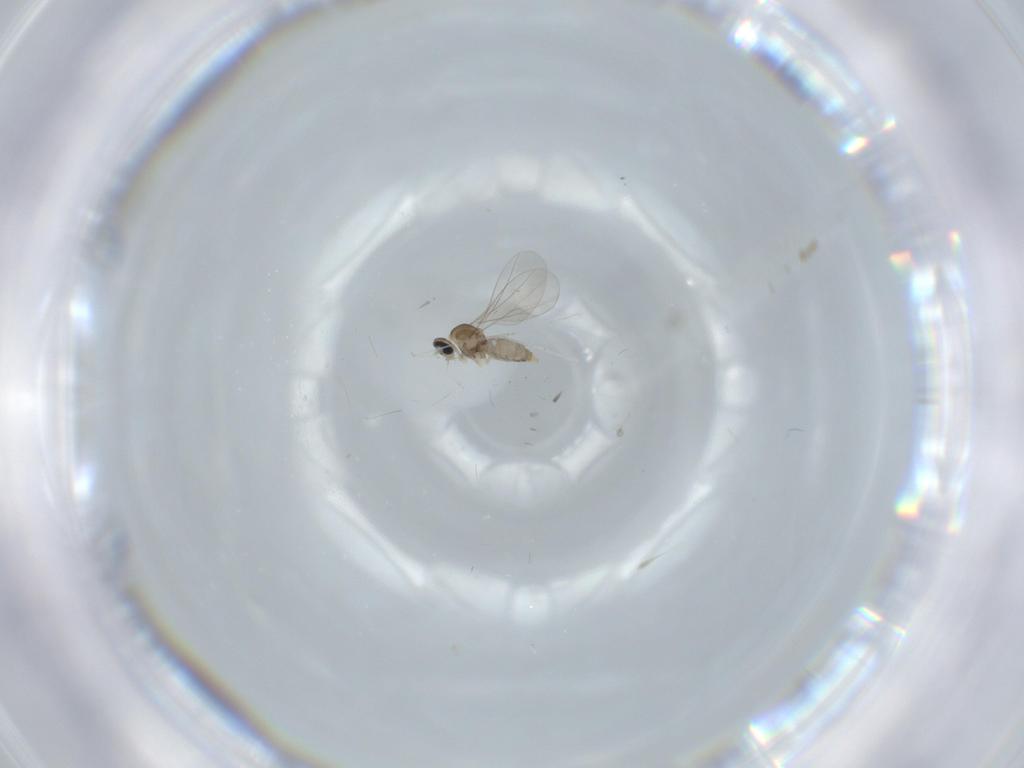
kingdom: Animalia
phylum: Arthropoda
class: Insecta
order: Diptera
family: Cecidomyiidae
